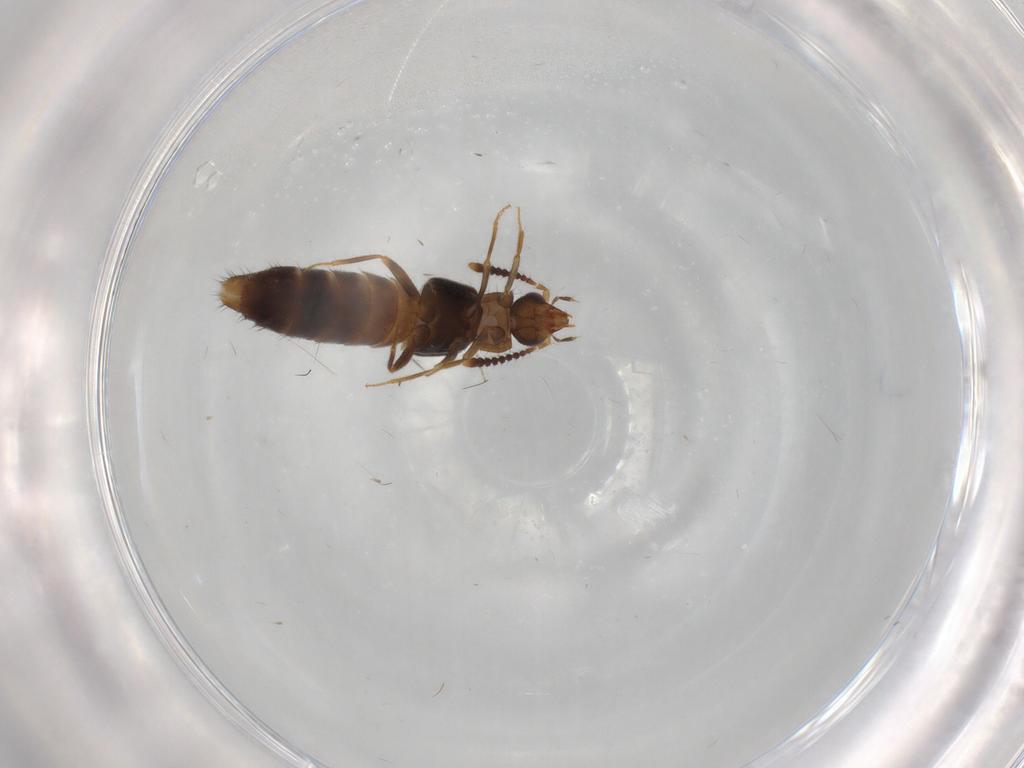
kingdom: Animalia
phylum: Arthropoda
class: Insecta
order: Coleoptera
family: Staphylinidae
